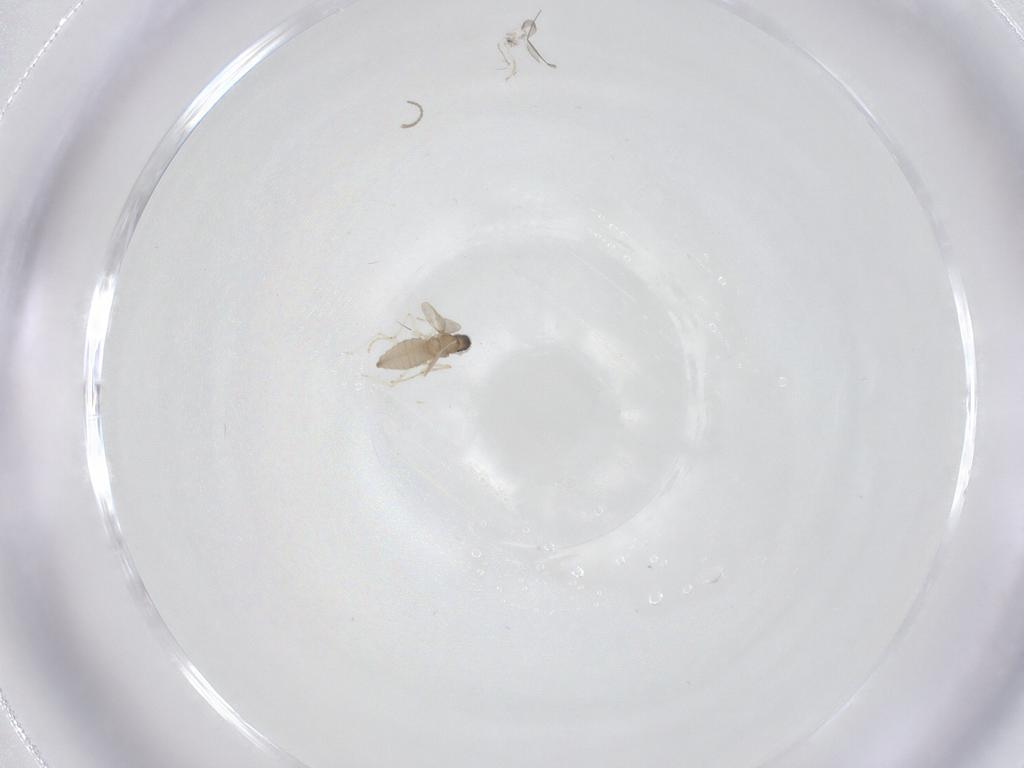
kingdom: Animalia
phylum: Arthropoda
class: Insecta
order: Diptera
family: Cecidomyiidae
